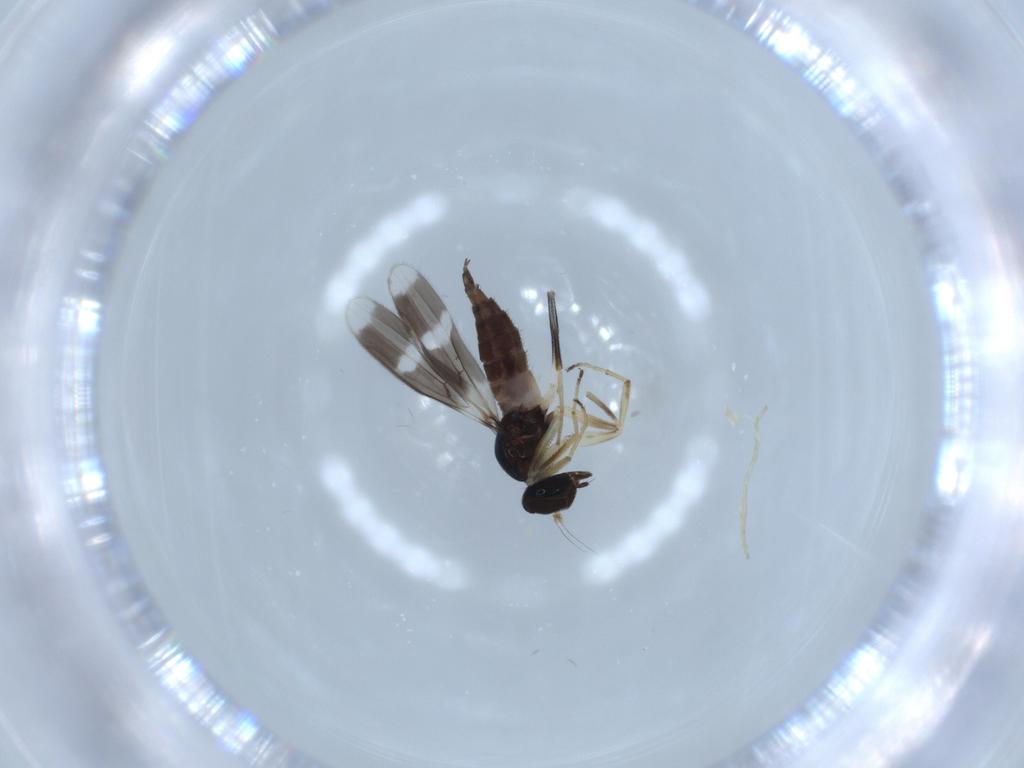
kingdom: Animalia
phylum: Arthropoda
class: Insecta
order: Diptera
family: Hybotidae
